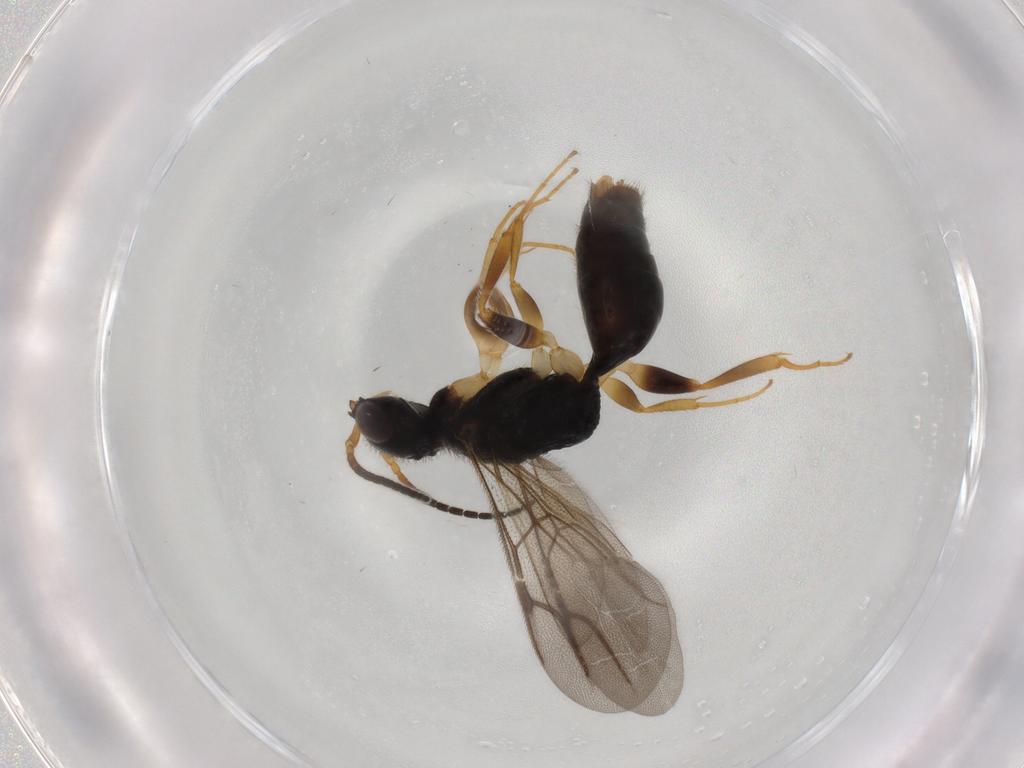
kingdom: Animalia
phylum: Arthropoda
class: Insecta
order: Hymenoptera
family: Bethylidae
